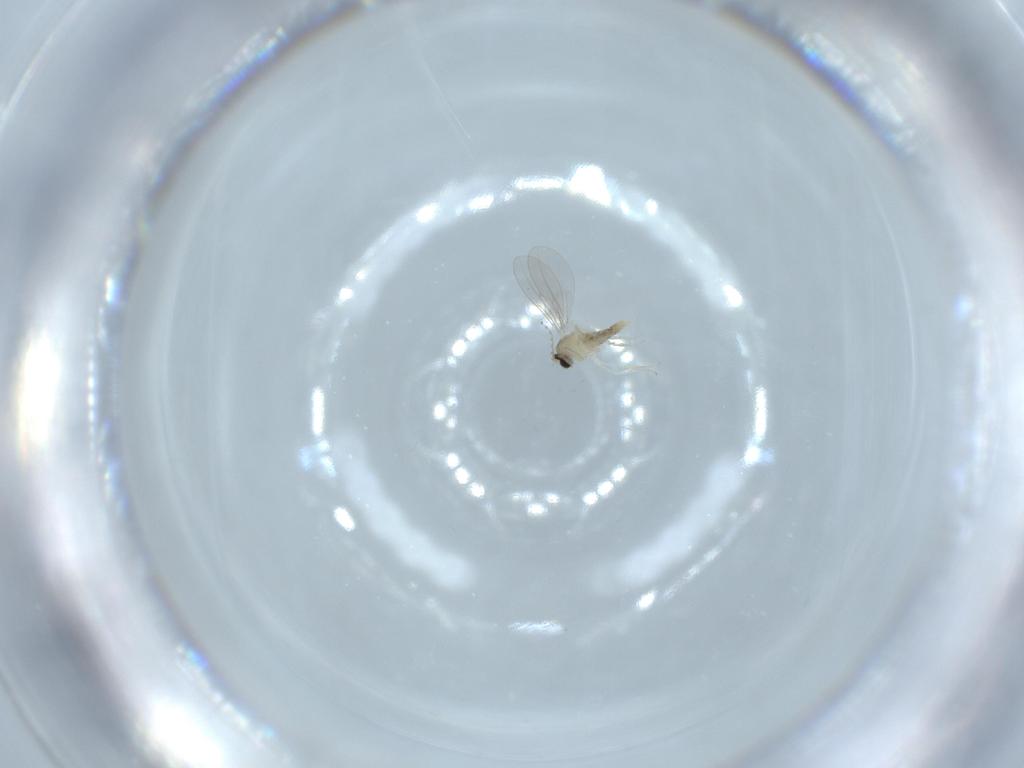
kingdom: Animalia
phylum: Arthropoda
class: Insecta
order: Diptera
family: Cecidomyiidae
